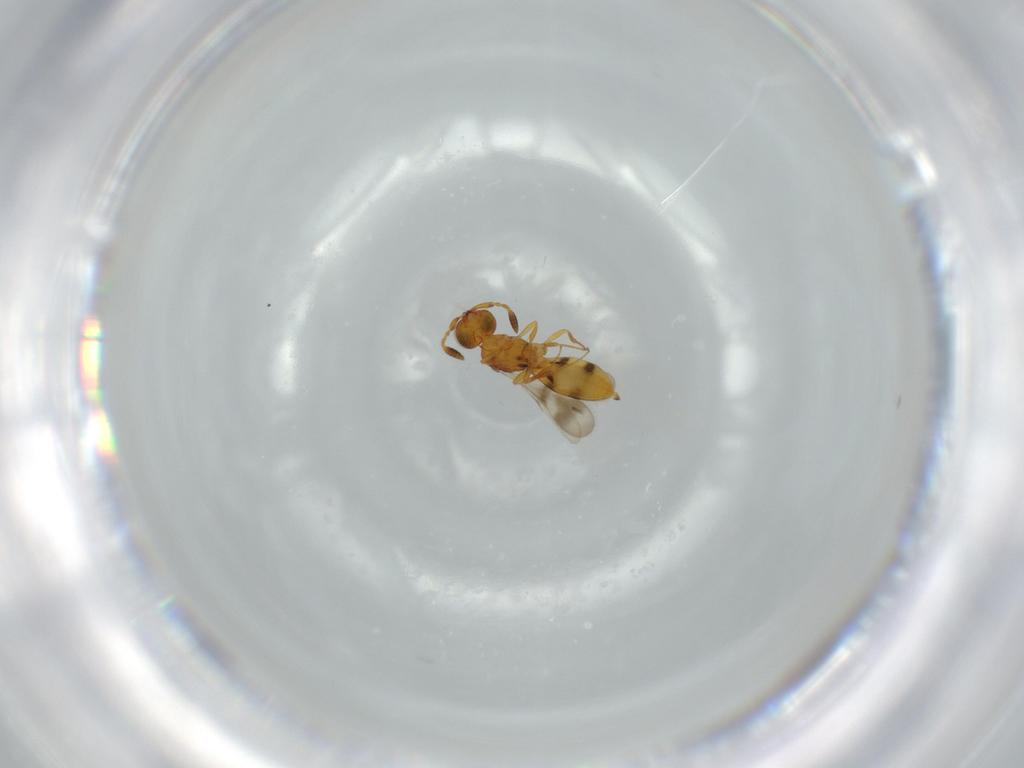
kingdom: Animalia
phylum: Arthropoda
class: Insecta
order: Hymenoptera
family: Scelionidae
